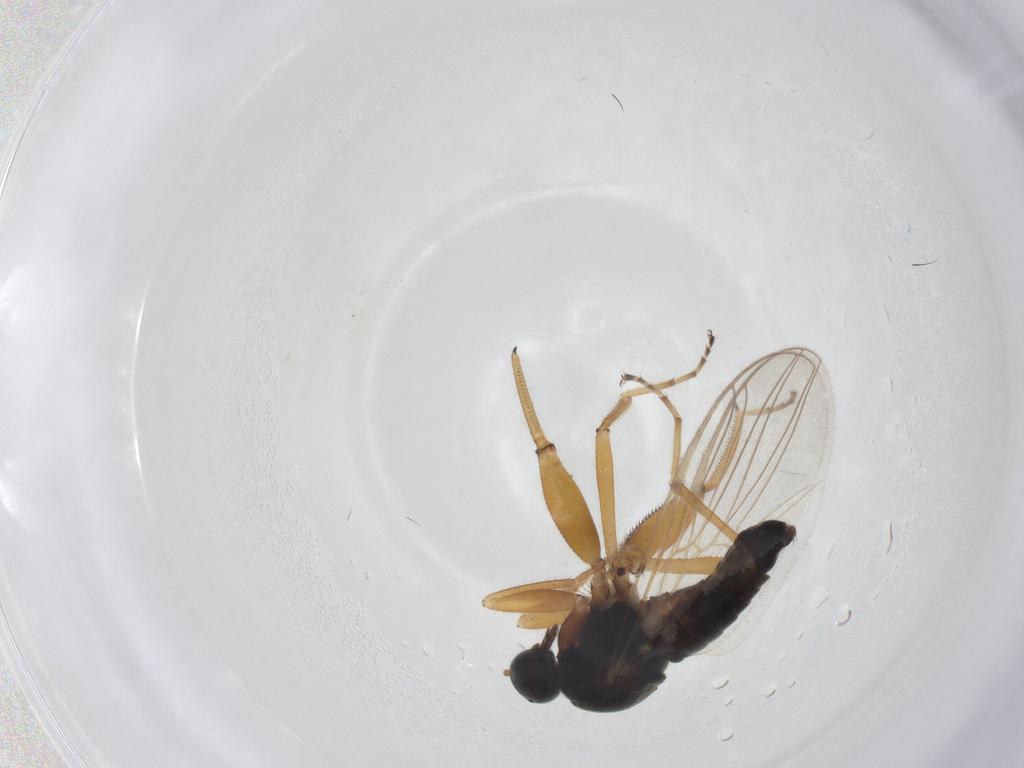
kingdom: Animalia
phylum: Arthropoda
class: Insecta
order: Diptera
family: Hybotidae
